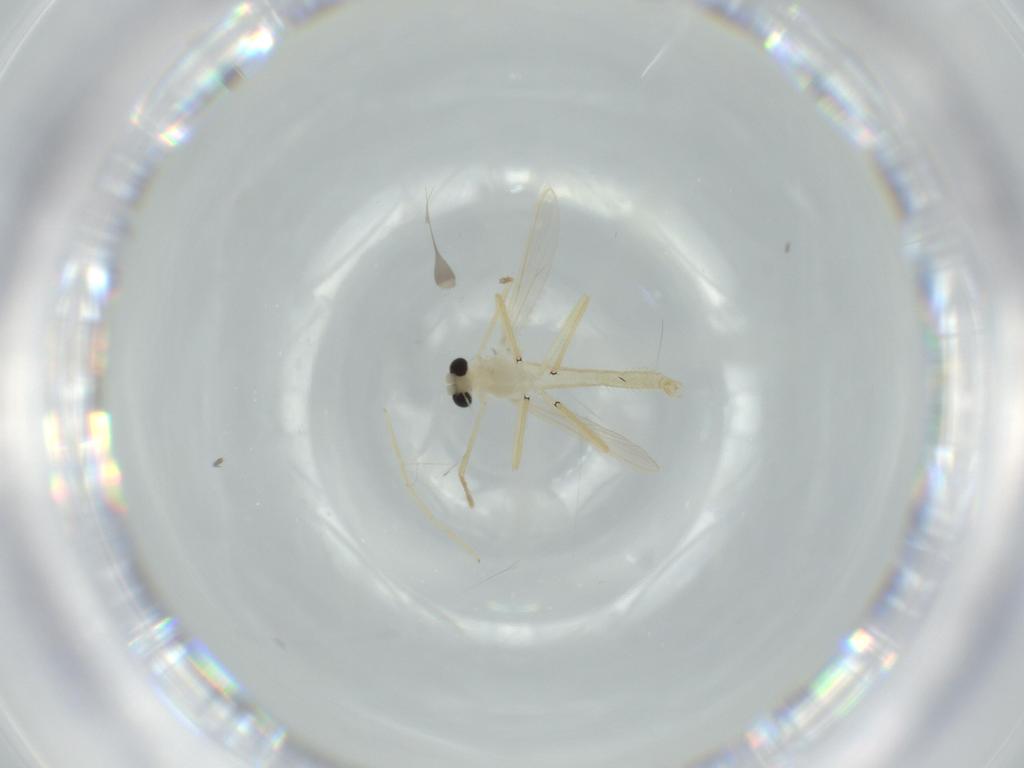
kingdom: Animalia
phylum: Arthropoda
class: Insecta
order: Diptera
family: Chironomidae
